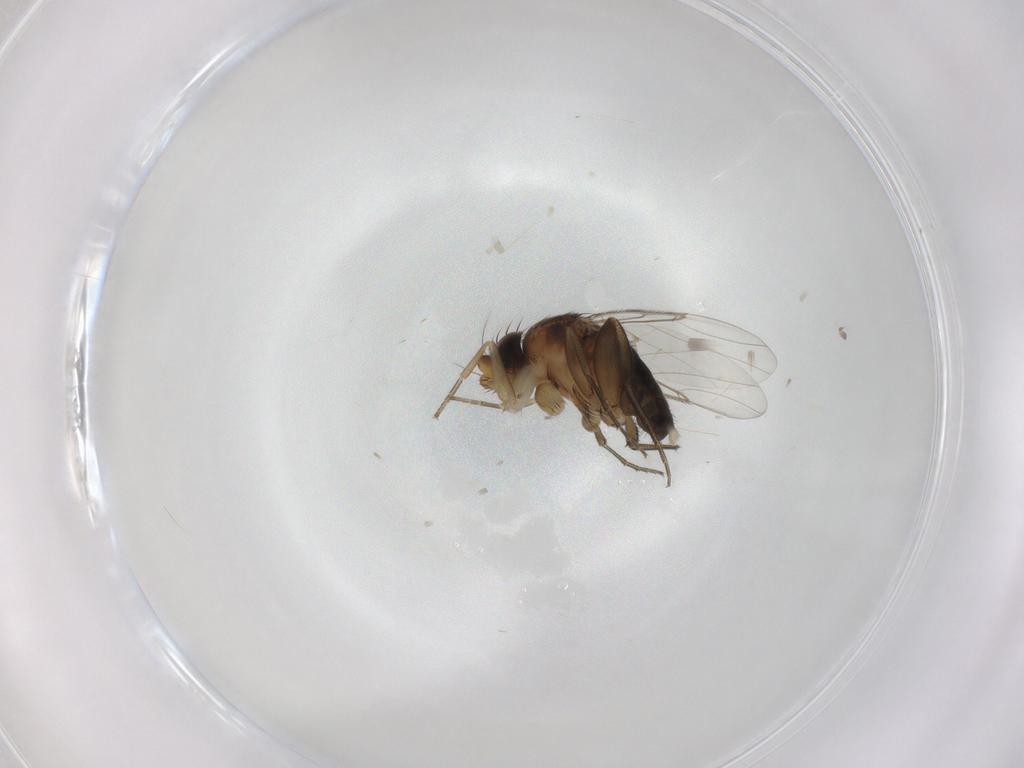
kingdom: Animalia
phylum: Arthropoda
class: Insecta
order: Diptera
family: Phoridae
